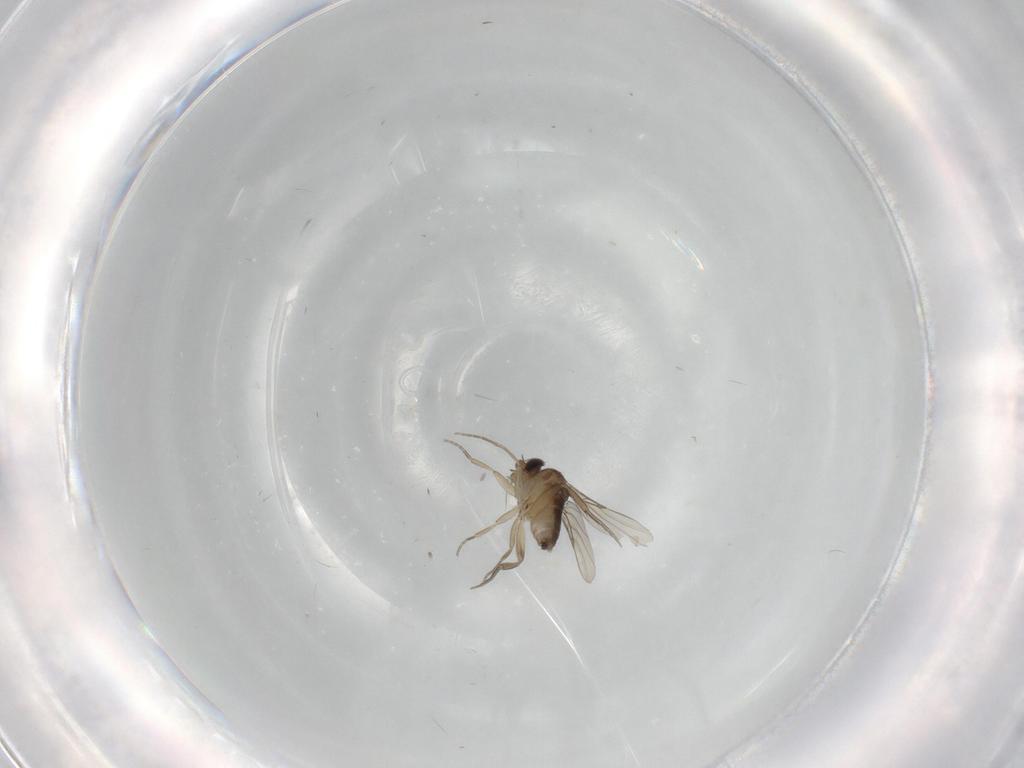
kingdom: Animalia
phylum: Arthropoda
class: Insecta
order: Diptera
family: Phoridae
